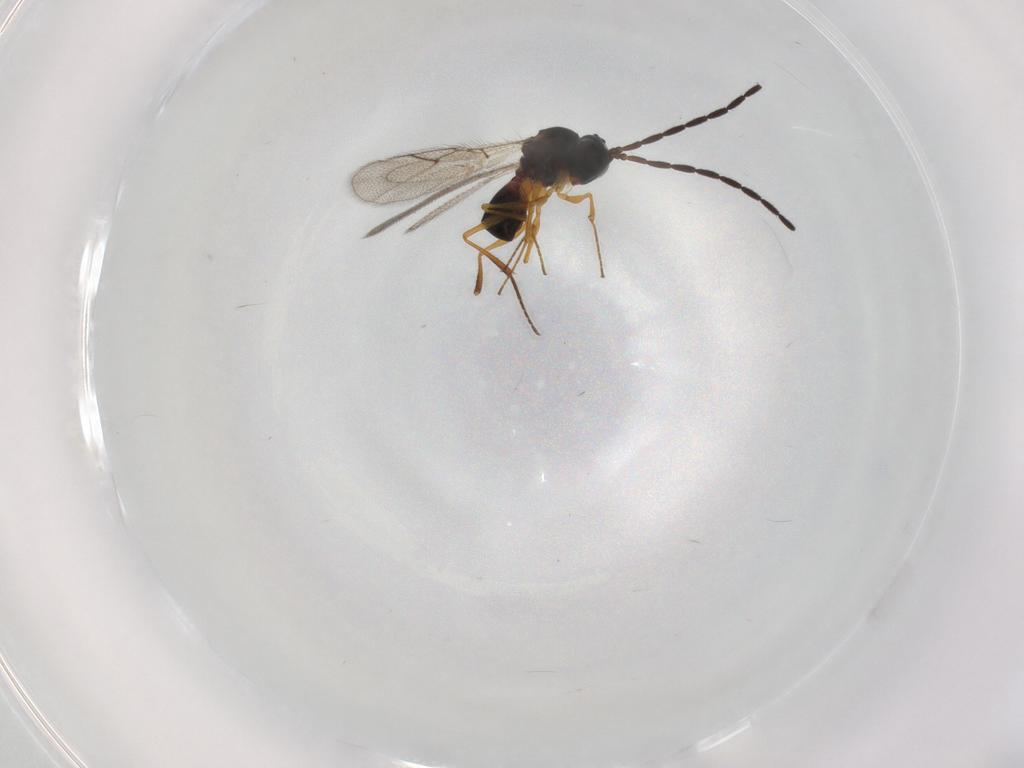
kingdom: Animalia
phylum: Arthropoda
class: Insecta
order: Hymenoptera
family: Figitidae
